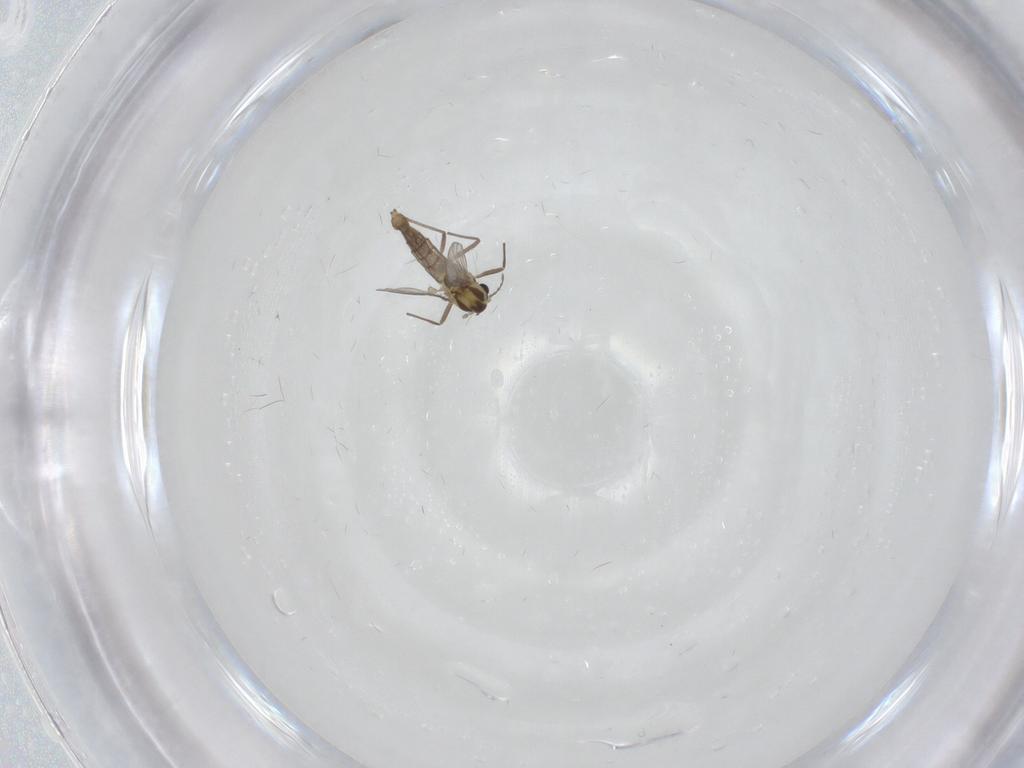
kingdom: Animalia
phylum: Arthropoda
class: Insecta
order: Diptera
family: Chironomidae
